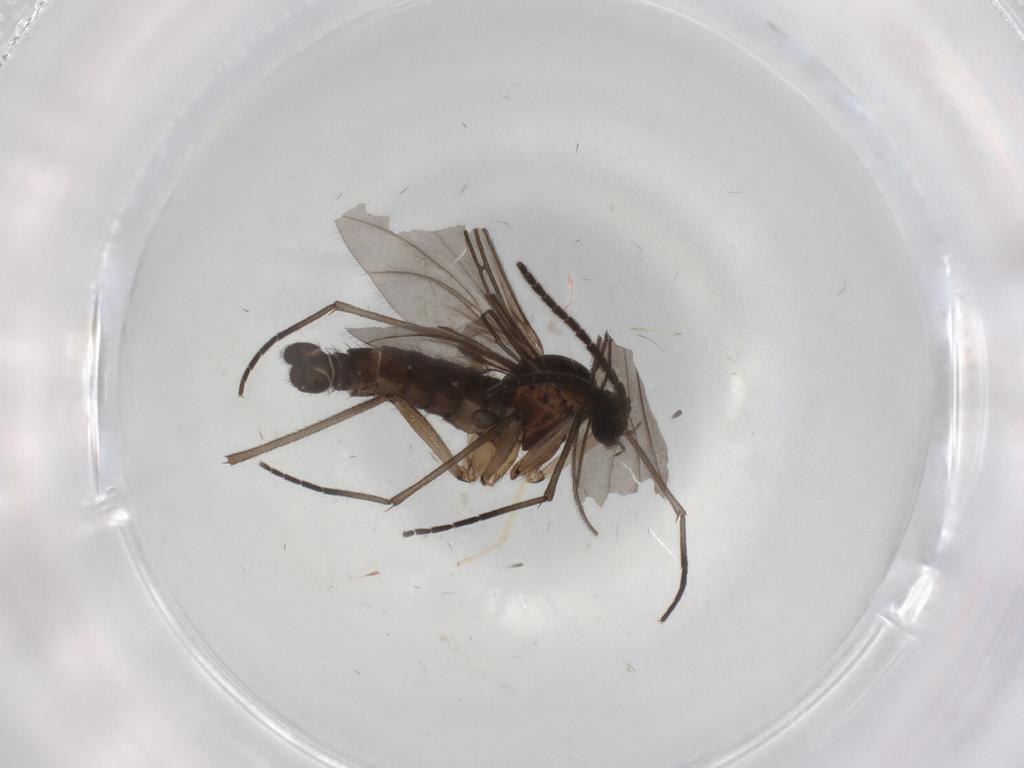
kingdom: Animalia
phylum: Arthropoda
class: Insecta
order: Diptera
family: Sciaridae
